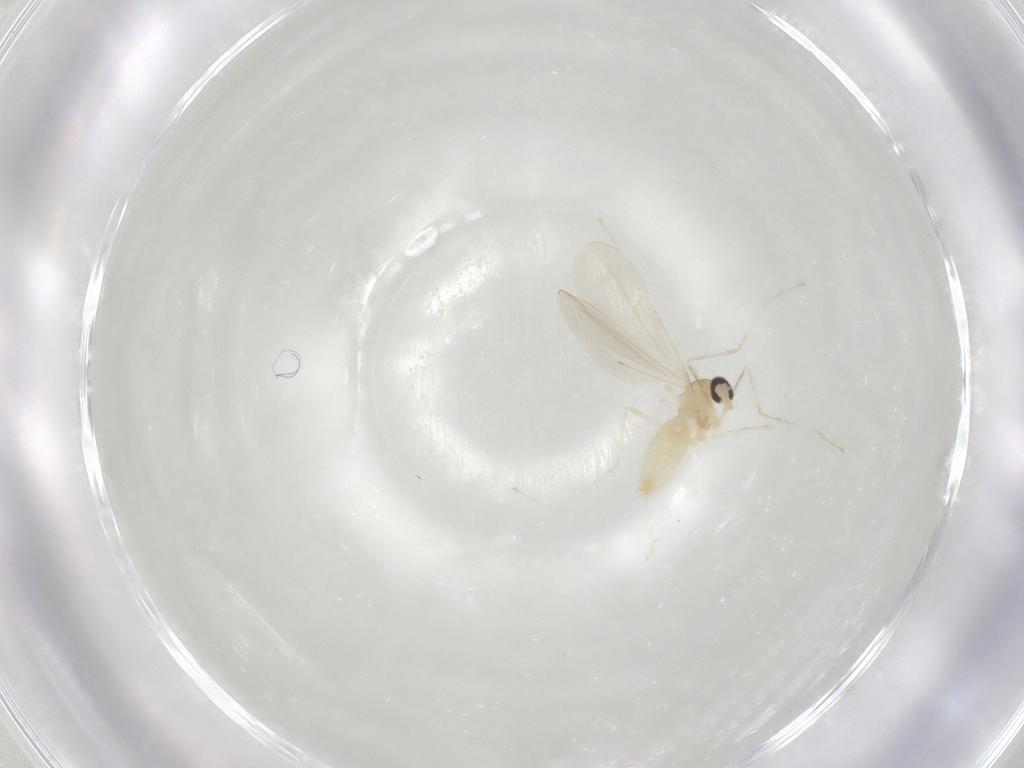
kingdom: Animalia
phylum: Arthropoda
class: Insecta
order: Diptera
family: Cecidomyiidae
